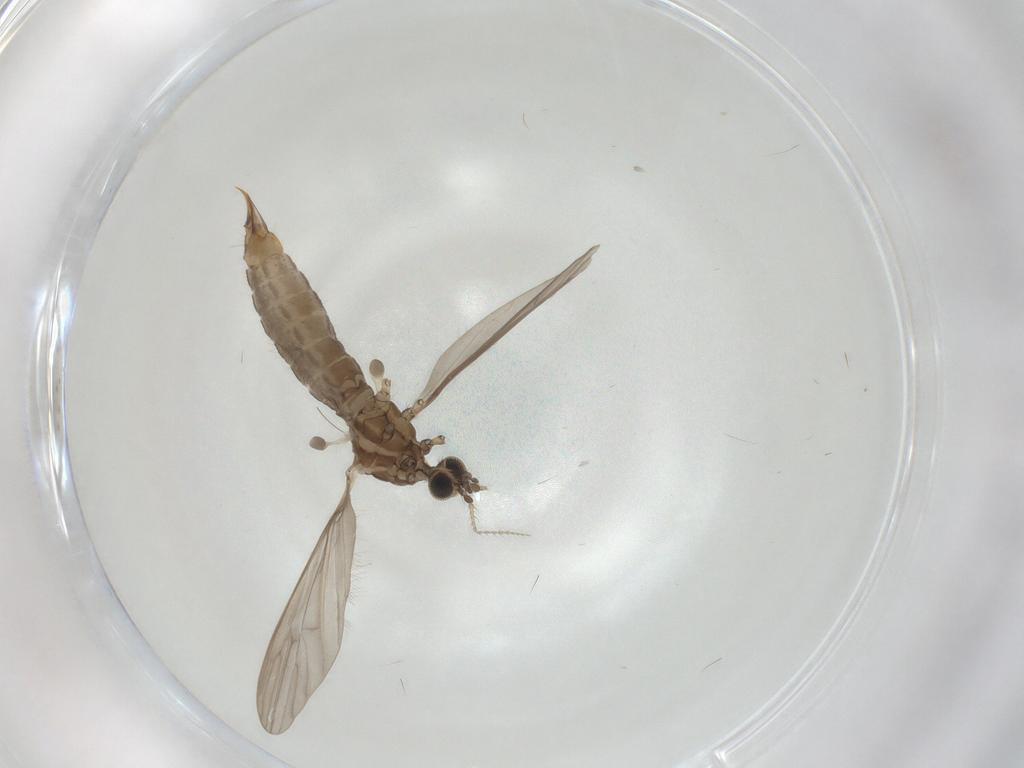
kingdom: Animalia
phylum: Arthropoda
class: Insecta
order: Diptera
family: Limoniidae
